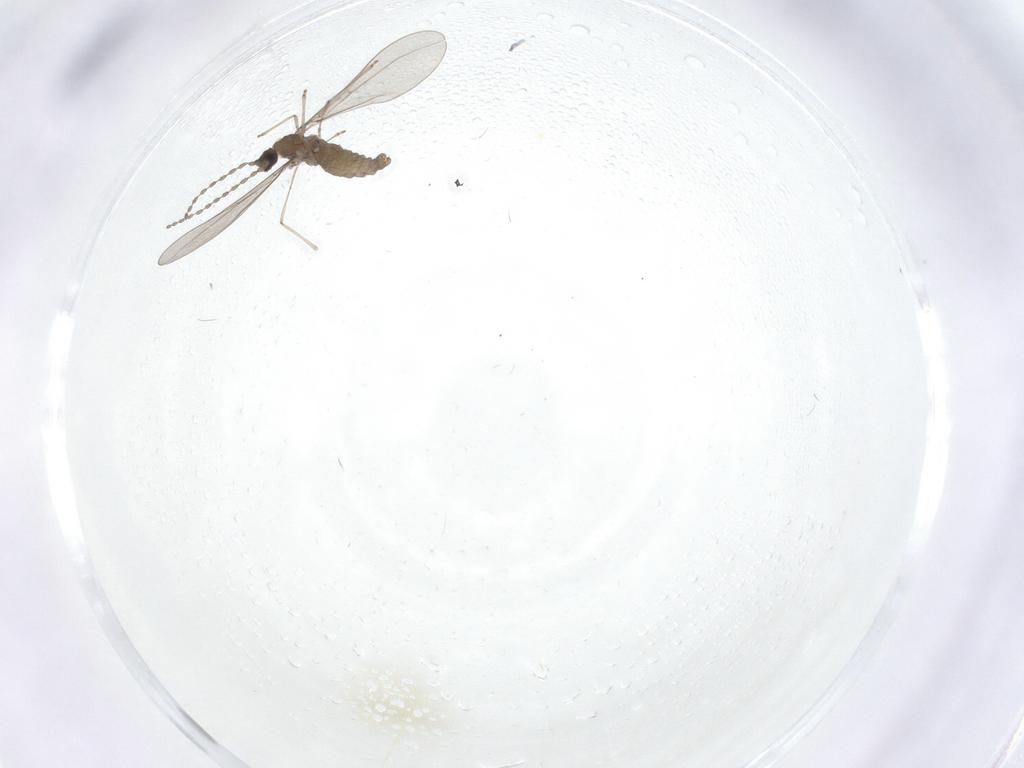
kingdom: Animalia
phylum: Arthropoda
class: Insecta
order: Diptera
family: Cecidomyiidae
